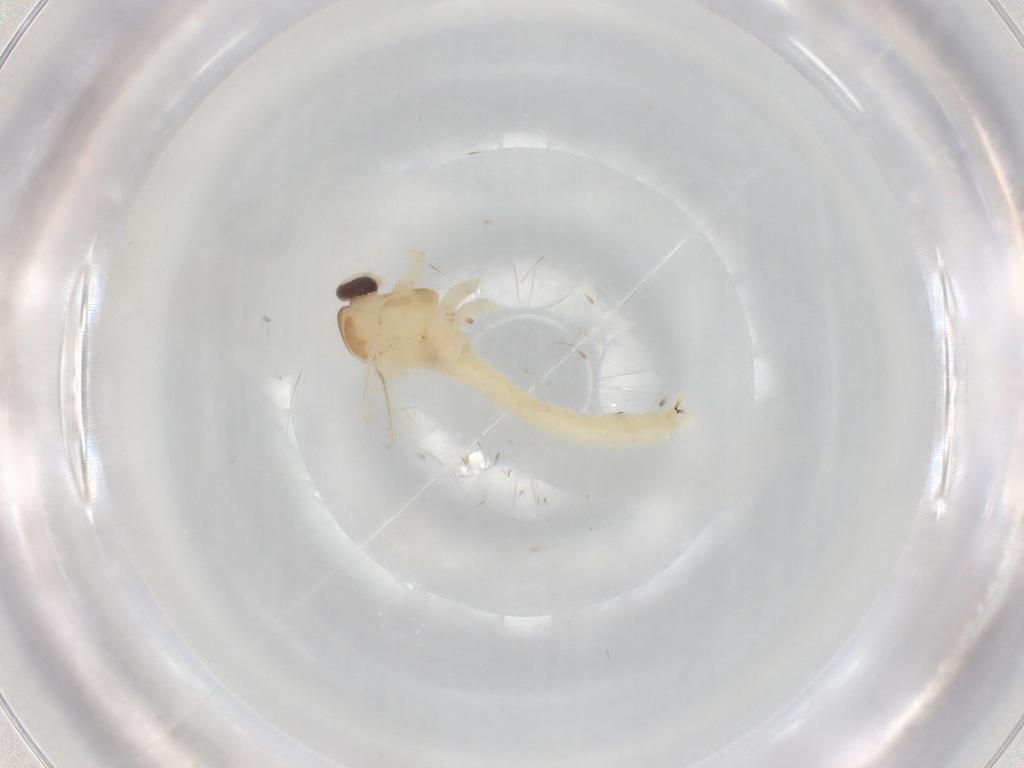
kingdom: Animalia
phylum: Arthropoda
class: Insecta
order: Diptera
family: Cecidomyiidae
